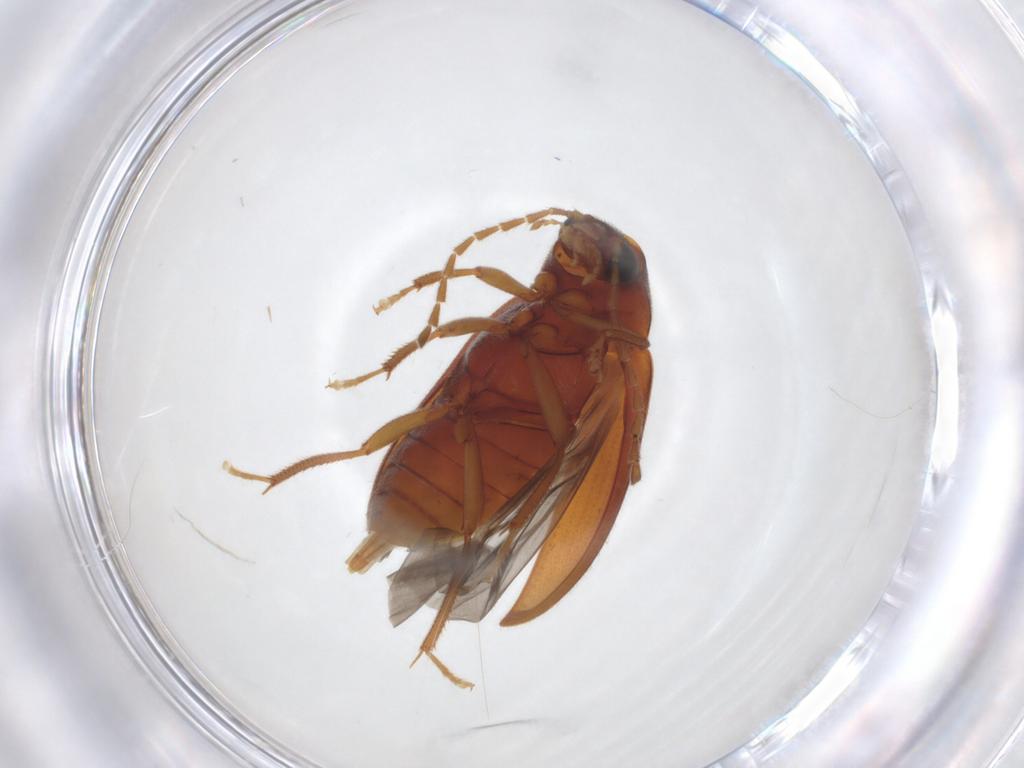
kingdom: Animalia
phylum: Arthropoda
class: Insecta
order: Coleoptera
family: Ptilodactylidae
